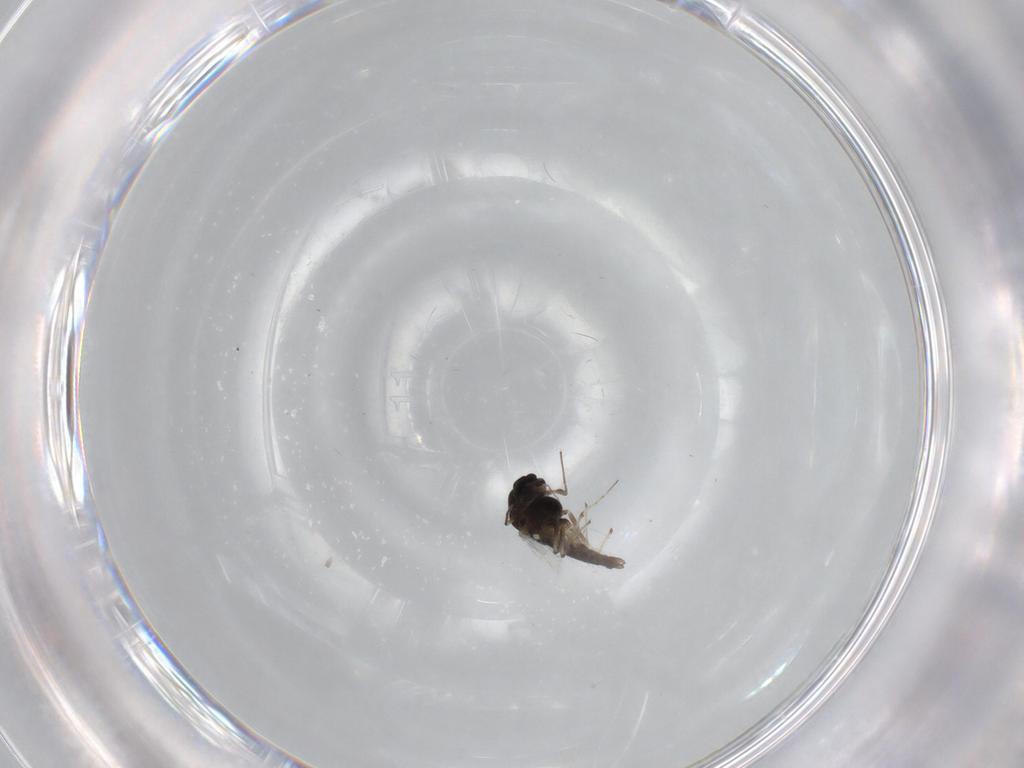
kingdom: Animalia
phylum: Arthropoda
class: Insecta
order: Diptera
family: Chironomidae
